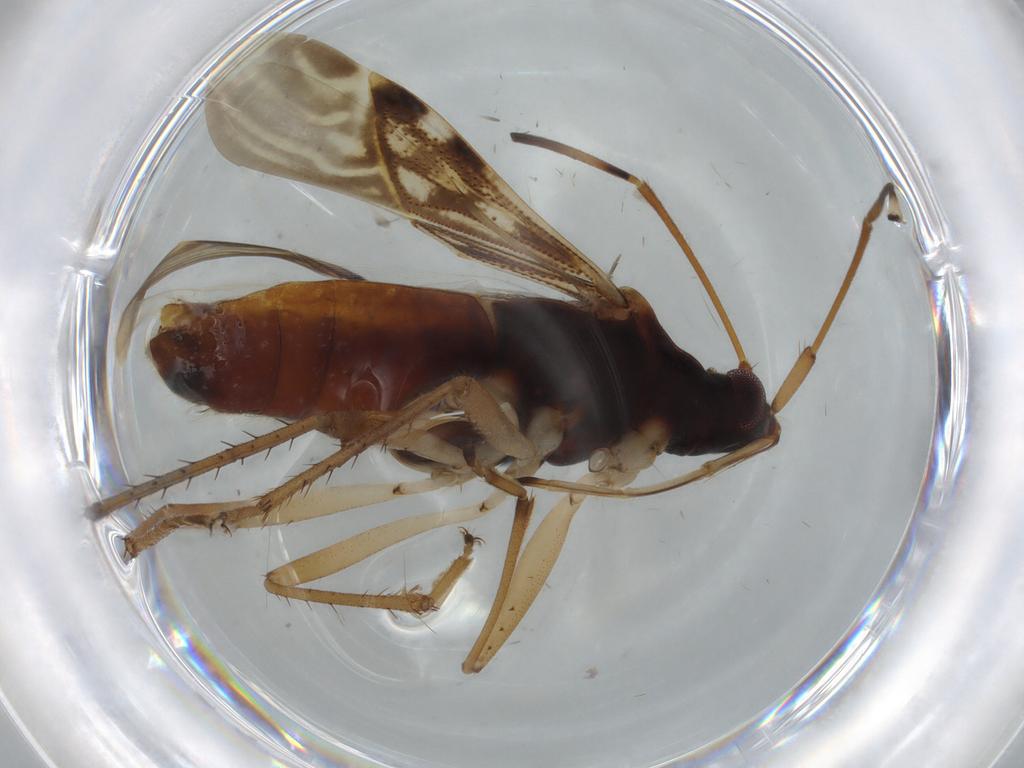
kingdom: Animalia
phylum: Arthropoda
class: Insecta
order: Hemiptera
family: Rhyparochromidae
